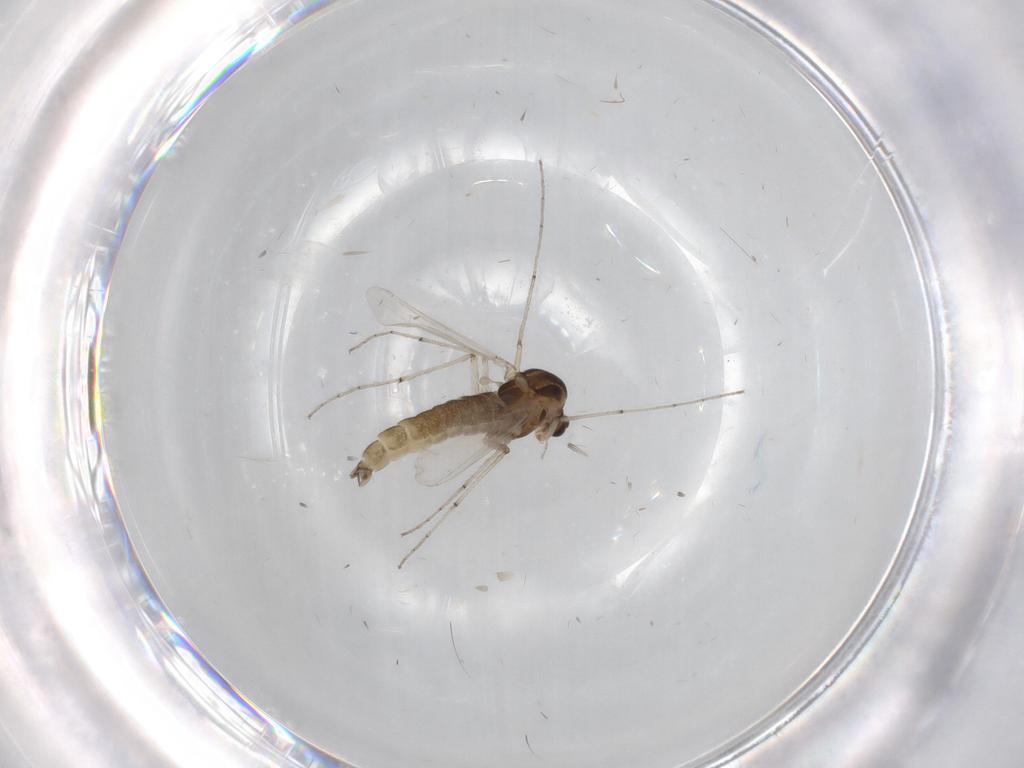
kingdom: Animalia
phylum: Arthropoda
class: Insecta
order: Diptera
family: Chironomidae
